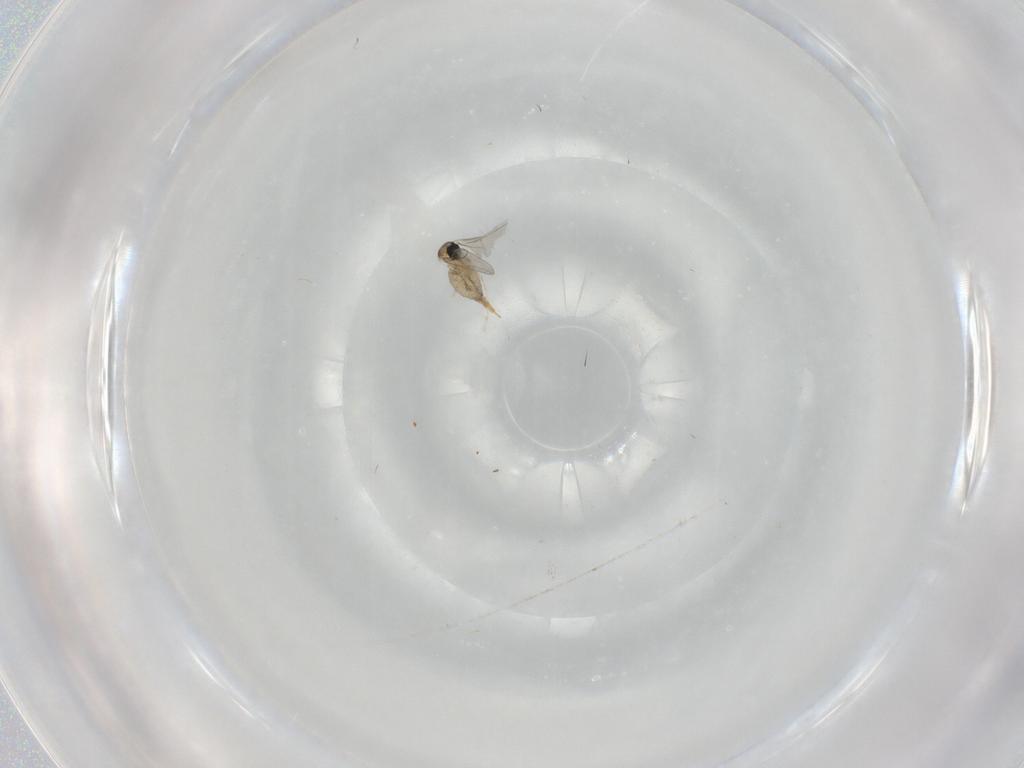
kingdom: Animalia
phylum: Arthropoda
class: Insecta
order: Diptera
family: Cecidomyiidae
